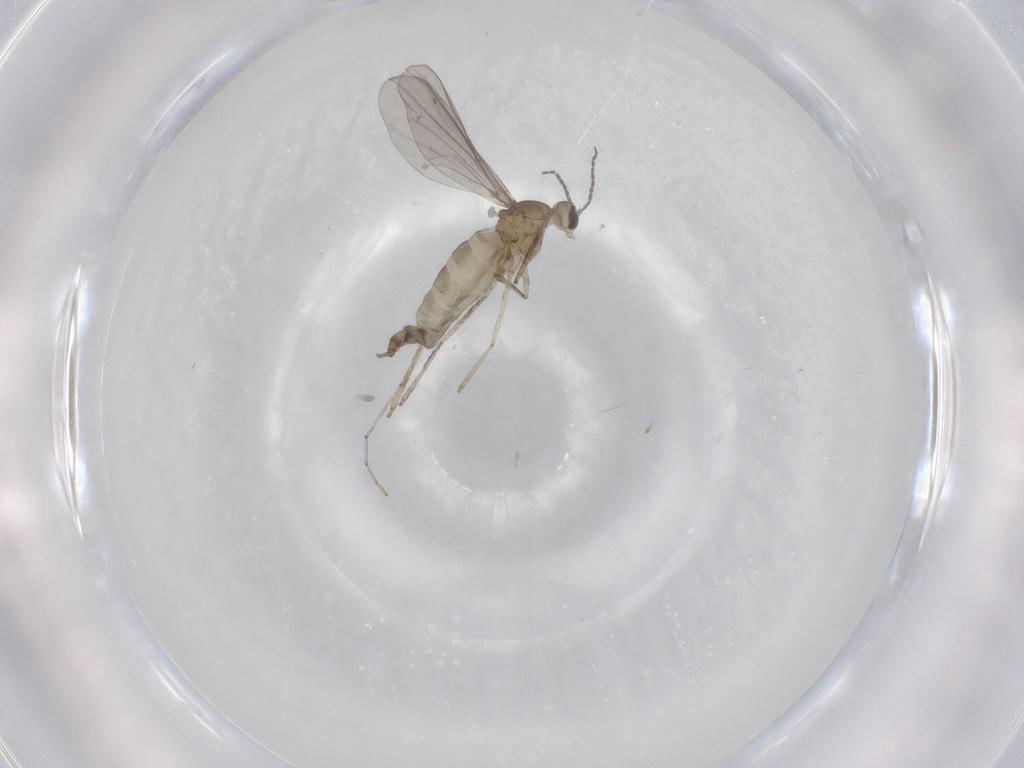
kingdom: Animalia
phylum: Arthropoda
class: Insecta
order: Diptera
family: Cecidomyiidae
